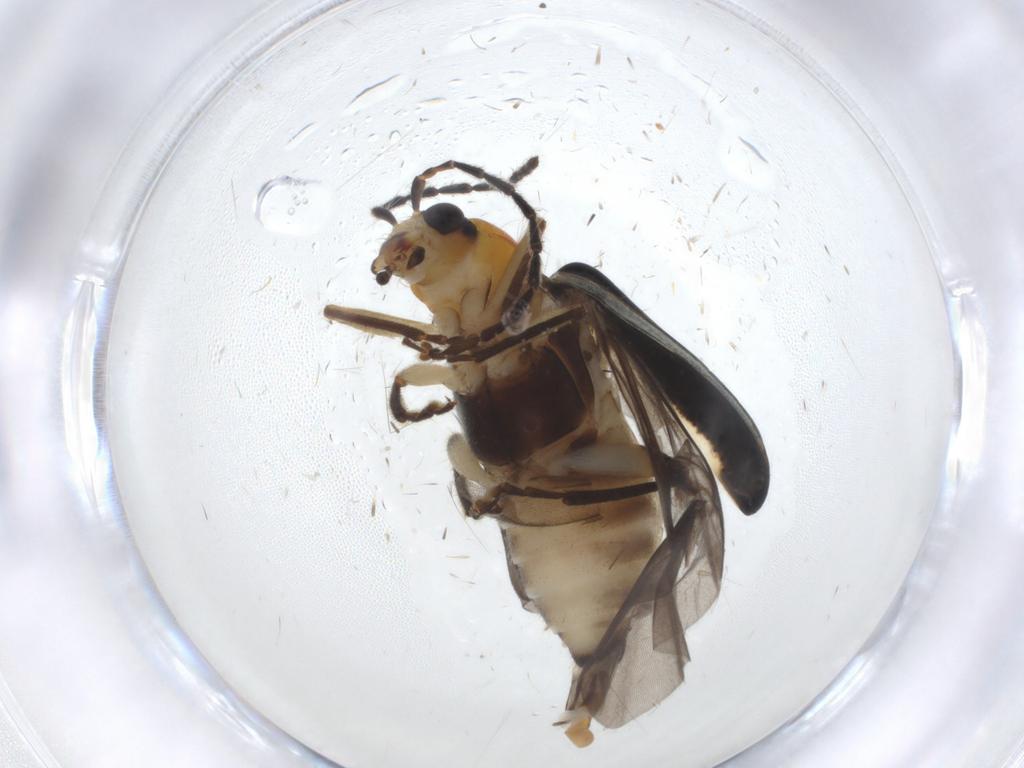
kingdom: Animalia
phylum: Arthropoda
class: Insecta
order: Coleoptera
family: Chrysomelidae
